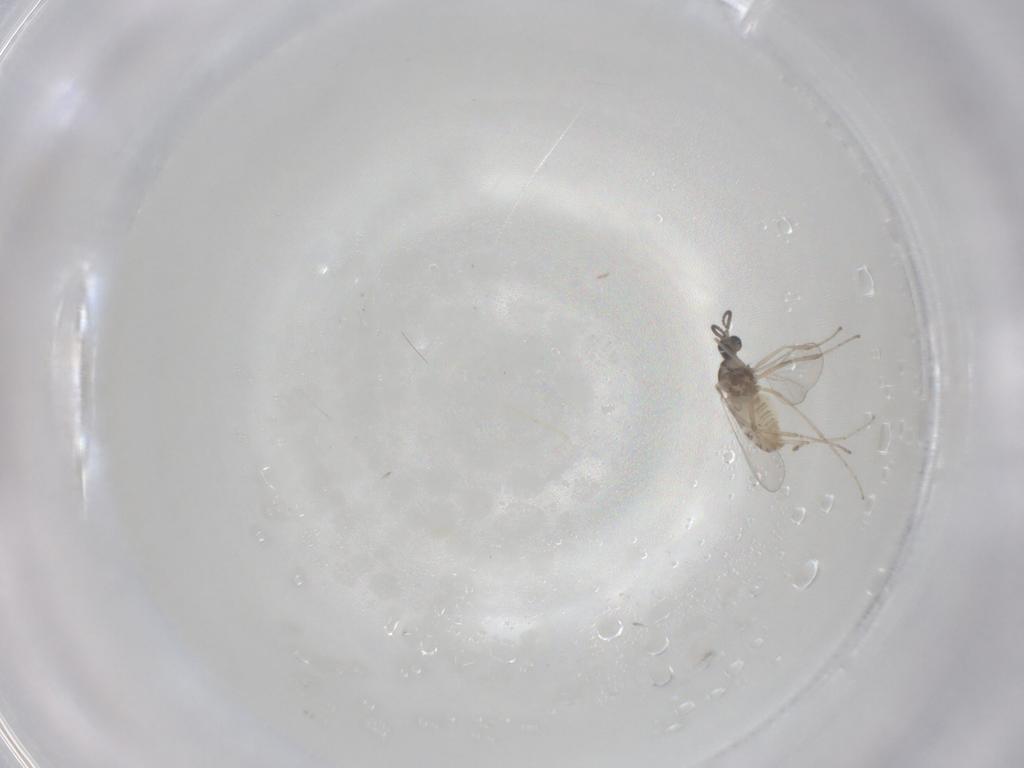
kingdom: Animalia
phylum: Arthropoda
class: Insecta
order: Diptera
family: Cecidomyiidae
